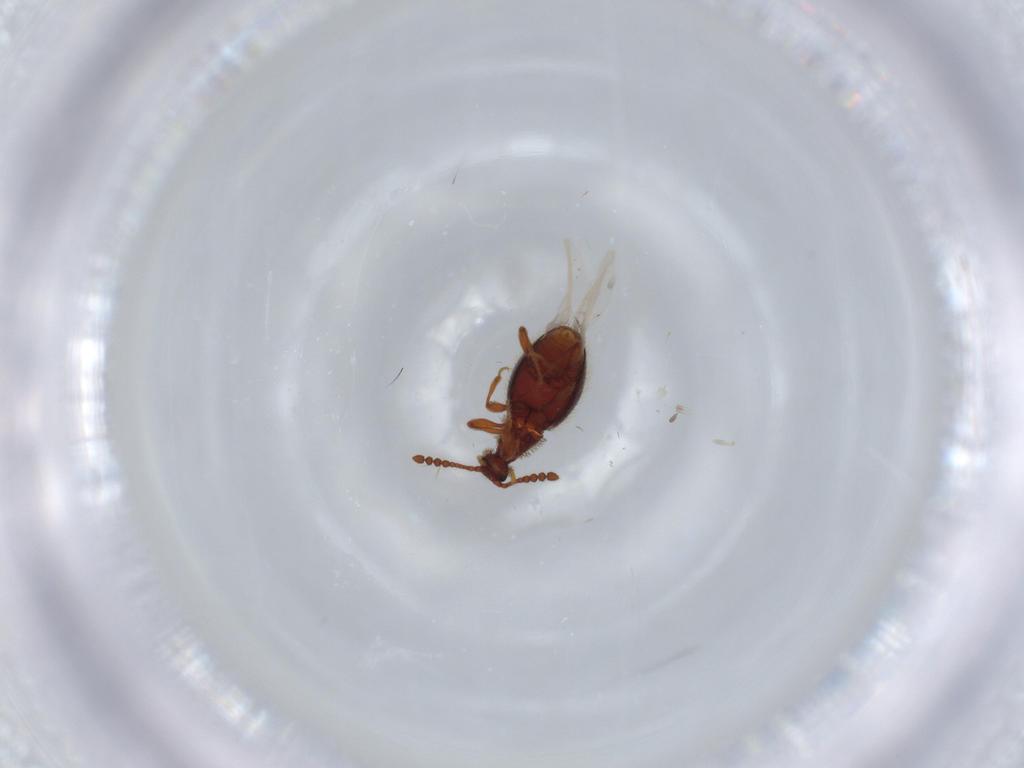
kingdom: Animalia
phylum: Arthropoda
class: Insecta
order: Coleoptera
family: Staphylinidae
